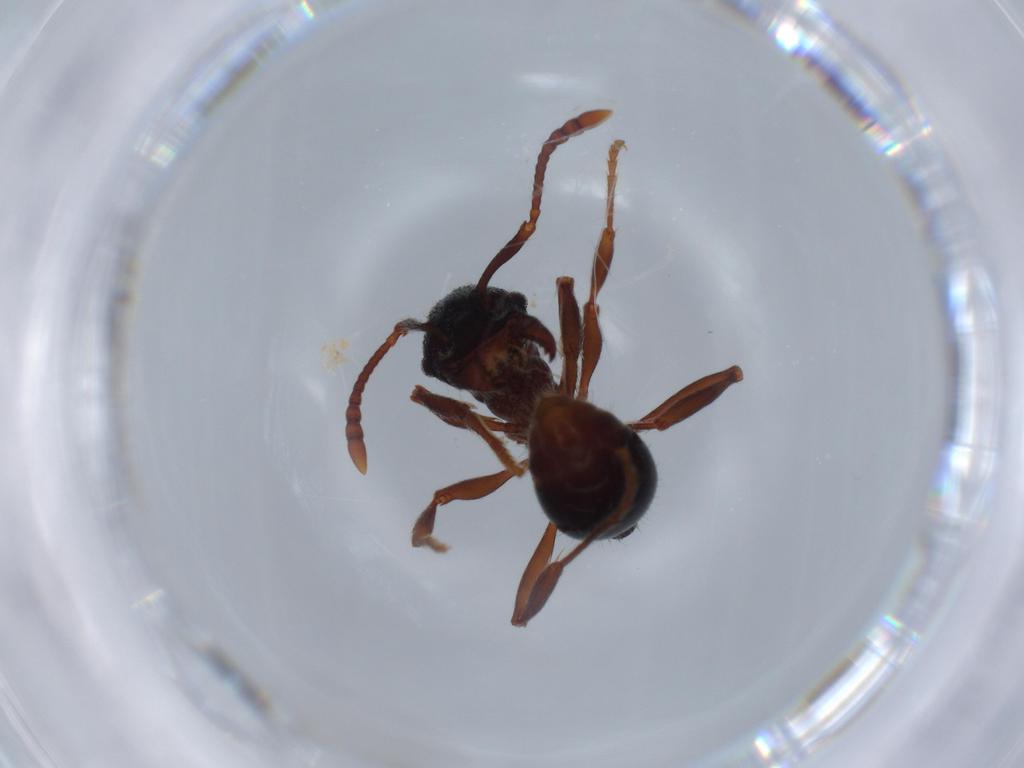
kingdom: Animalia
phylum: Arthropoda
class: Insecta
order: Hymenoptera
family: Formicidae
